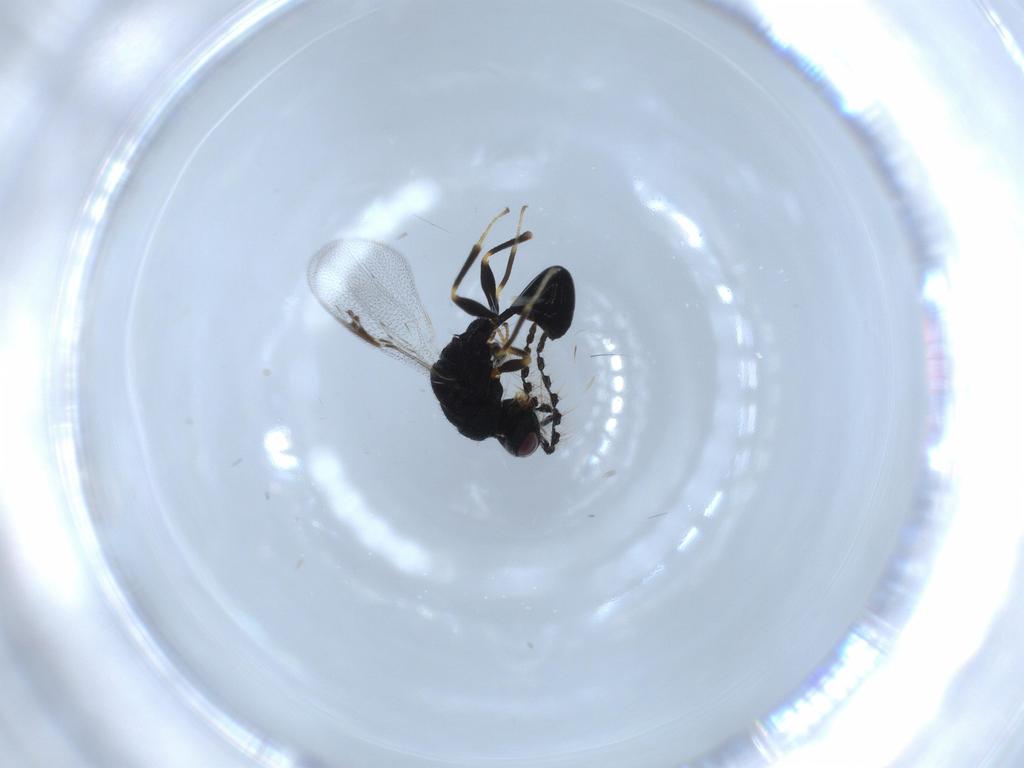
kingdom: Animalia
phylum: Arthropoda
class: Insecta
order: Hymenoptera
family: Eurytomidae
